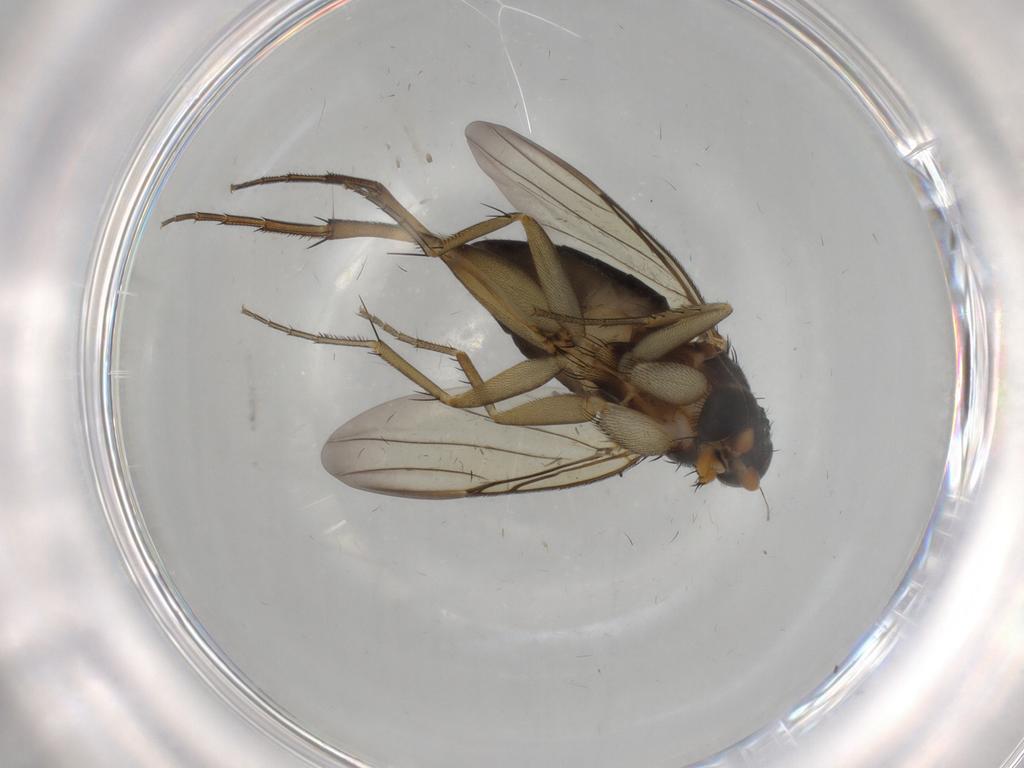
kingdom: Animalia
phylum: Arthropoda
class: Insecta
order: Diptera
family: Phoridae
